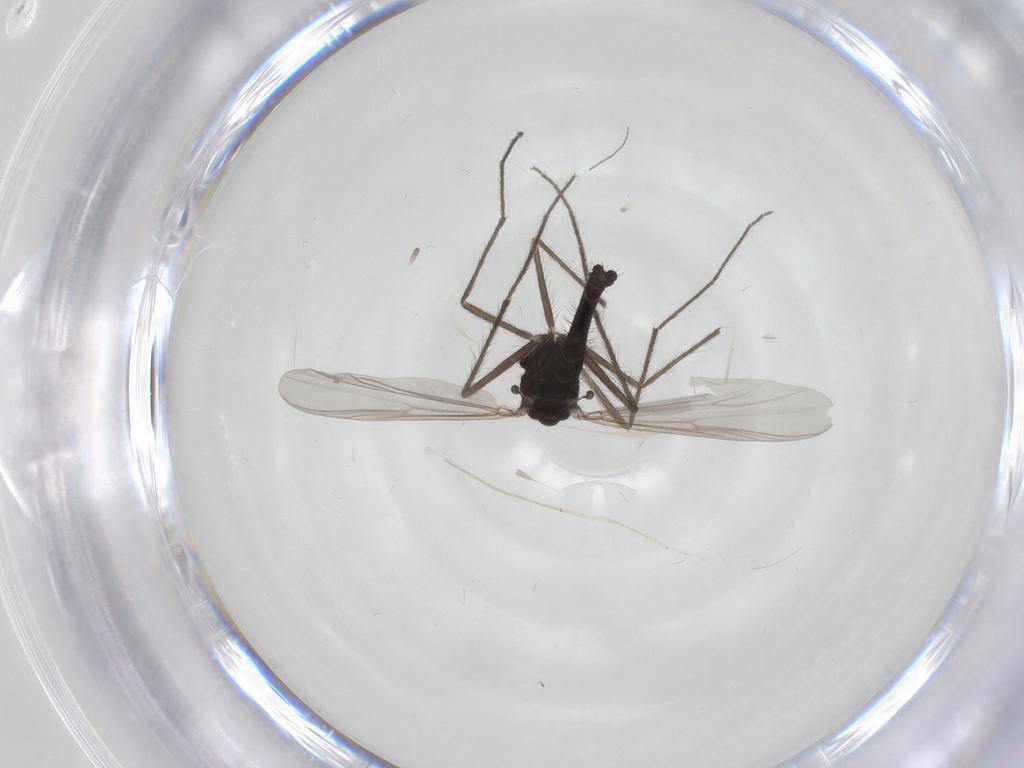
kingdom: Animalia
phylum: Arthropoda
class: Insecta
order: Diptera
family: Chironomidae
